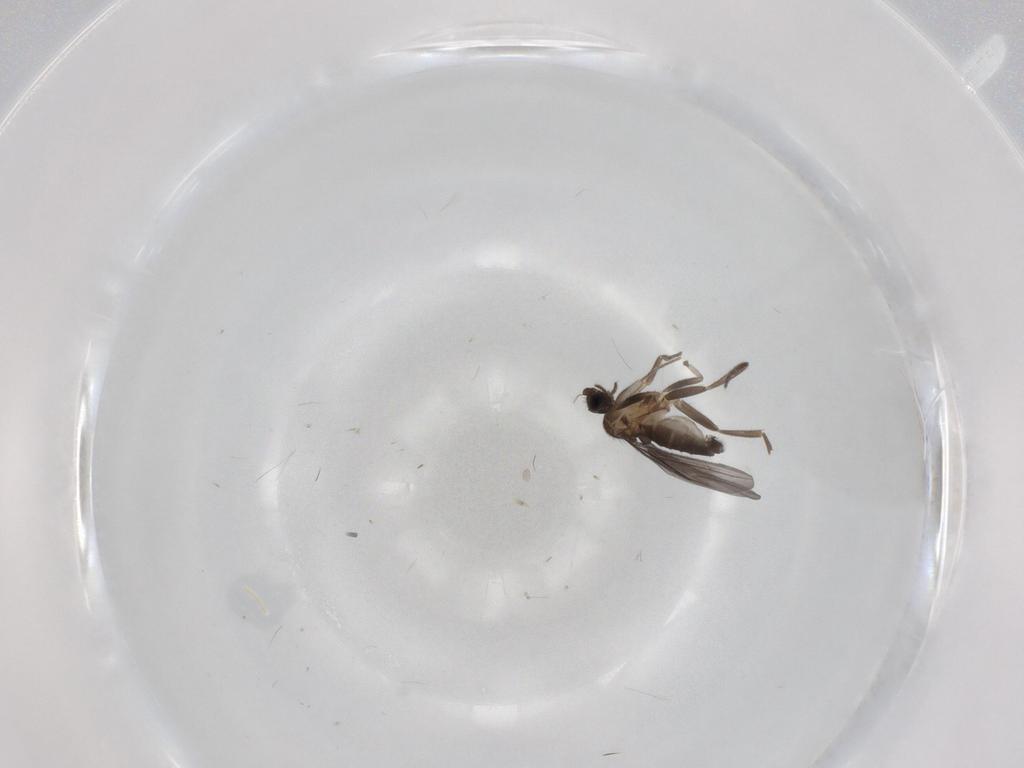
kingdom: Animalia
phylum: Arthropoda
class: Insecta
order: Diptera
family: Phoridae
